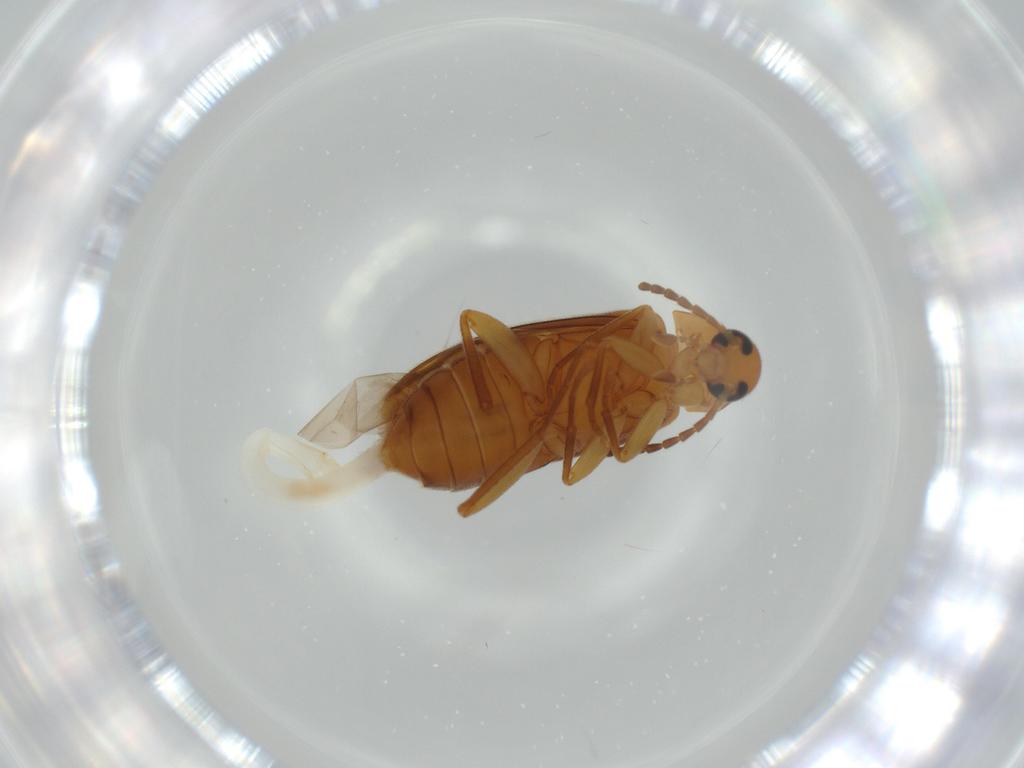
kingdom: Animalia
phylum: Arthropoda
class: Insecta
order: Coleoptera
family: Scraptiidae
